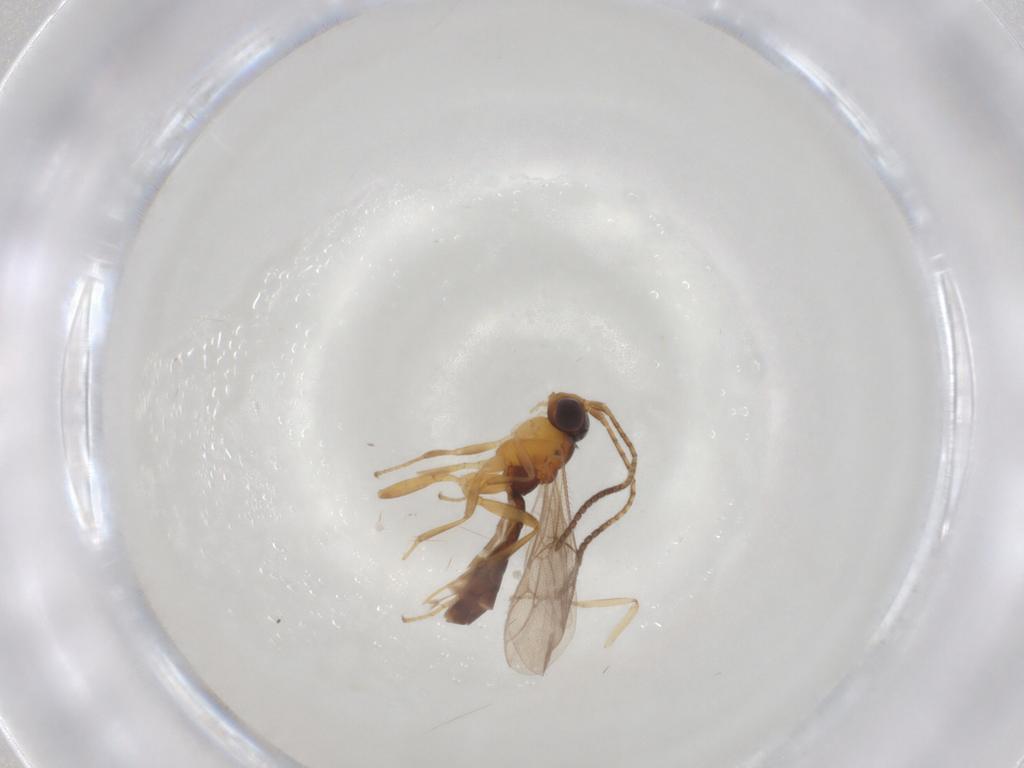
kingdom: Animalia
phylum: Arthropoda
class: Insecta
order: Hymenoptera
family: Ichneumonidae
